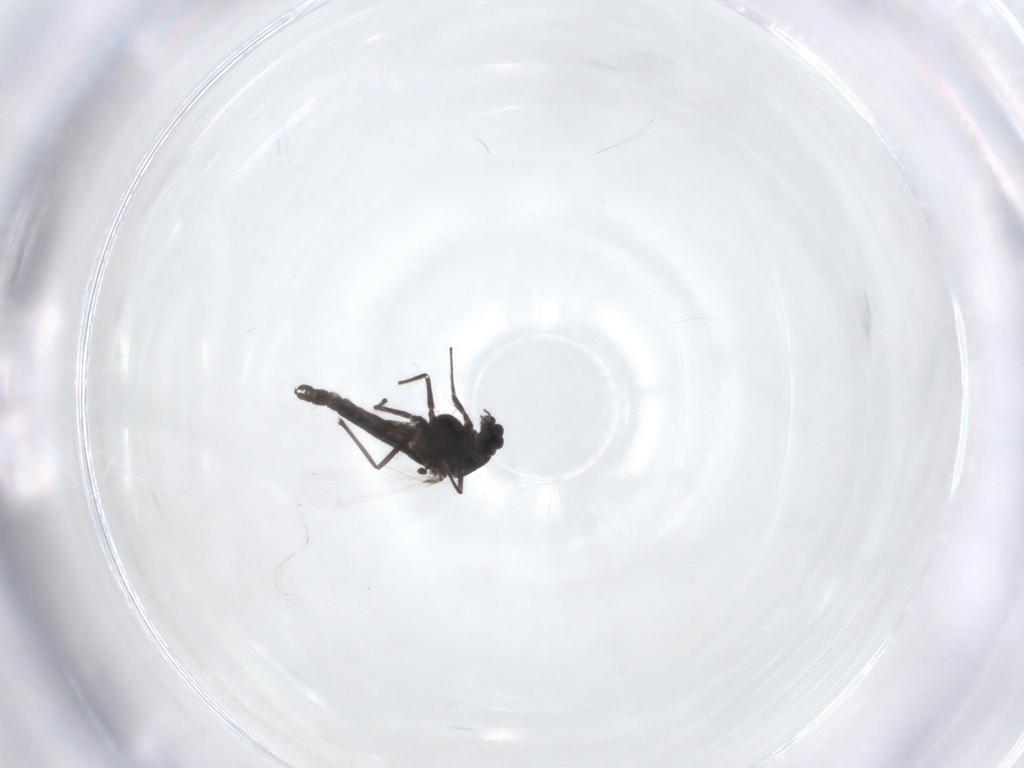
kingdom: Animalia
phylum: Arthropoda
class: Insecta
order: Diptera
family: Chironomidae
